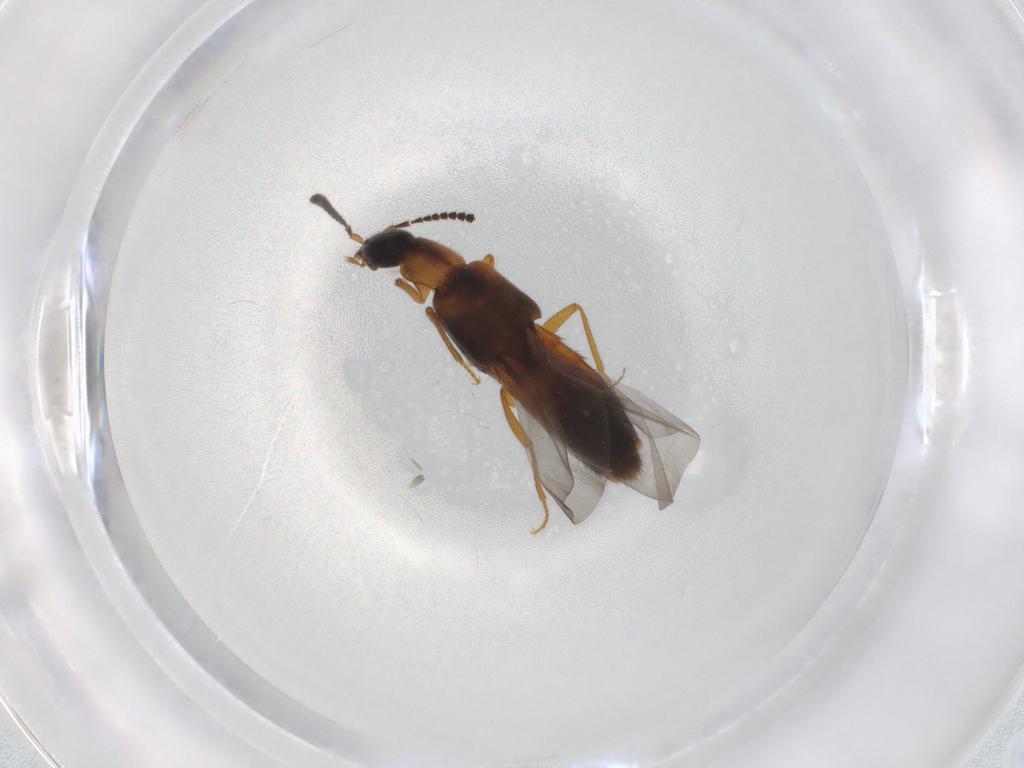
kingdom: Animalia
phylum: Arthropoda
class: Insecta
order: Coleoptera
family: Staphylinidae
